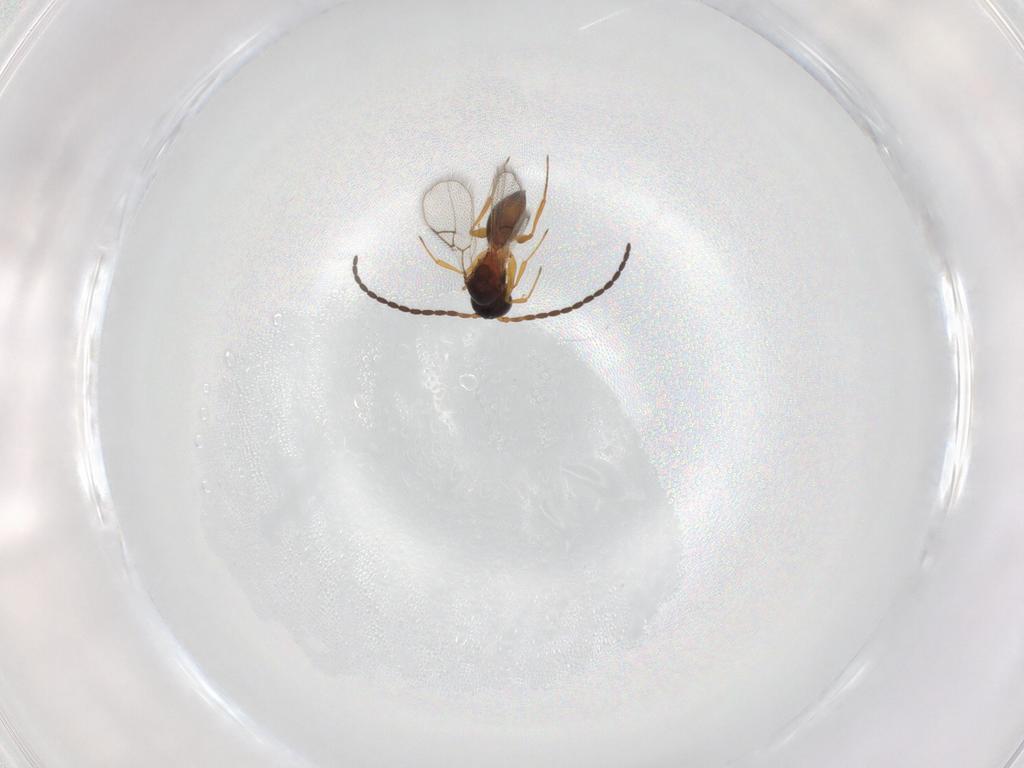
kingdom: Animalia
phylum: Arthropoda
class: Insecta
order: Hymenoptera
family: Figitidae
